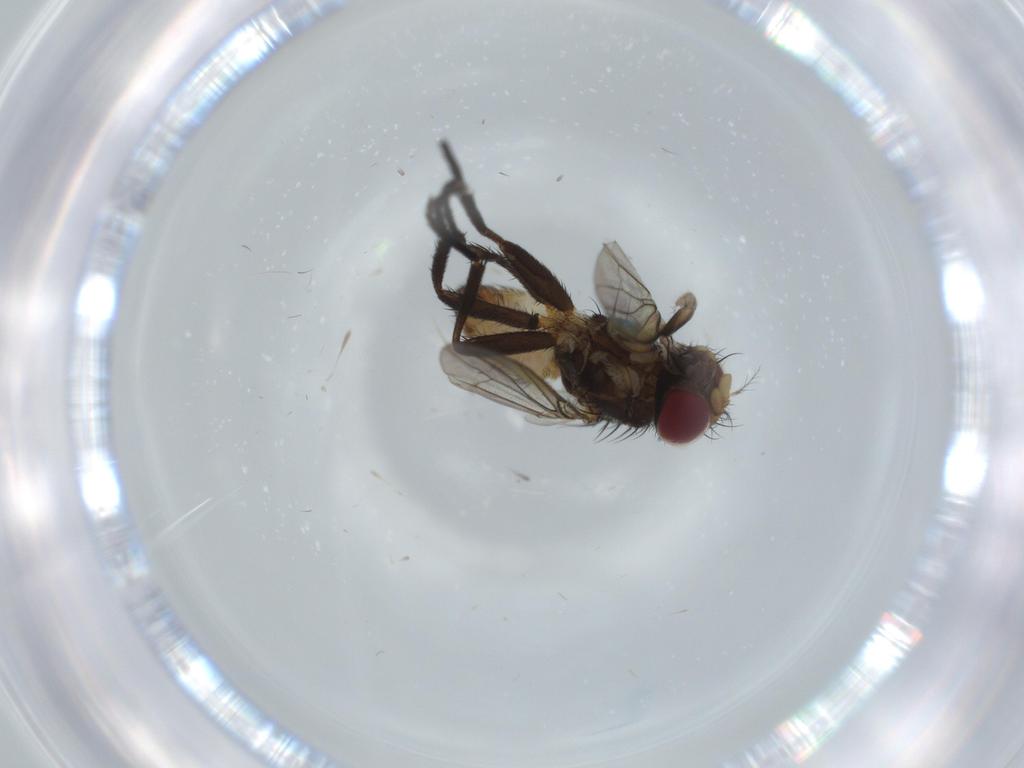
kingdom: Animalia
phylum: Arthropoda
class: Insecta
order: Diptera
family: Anthomyiidae
